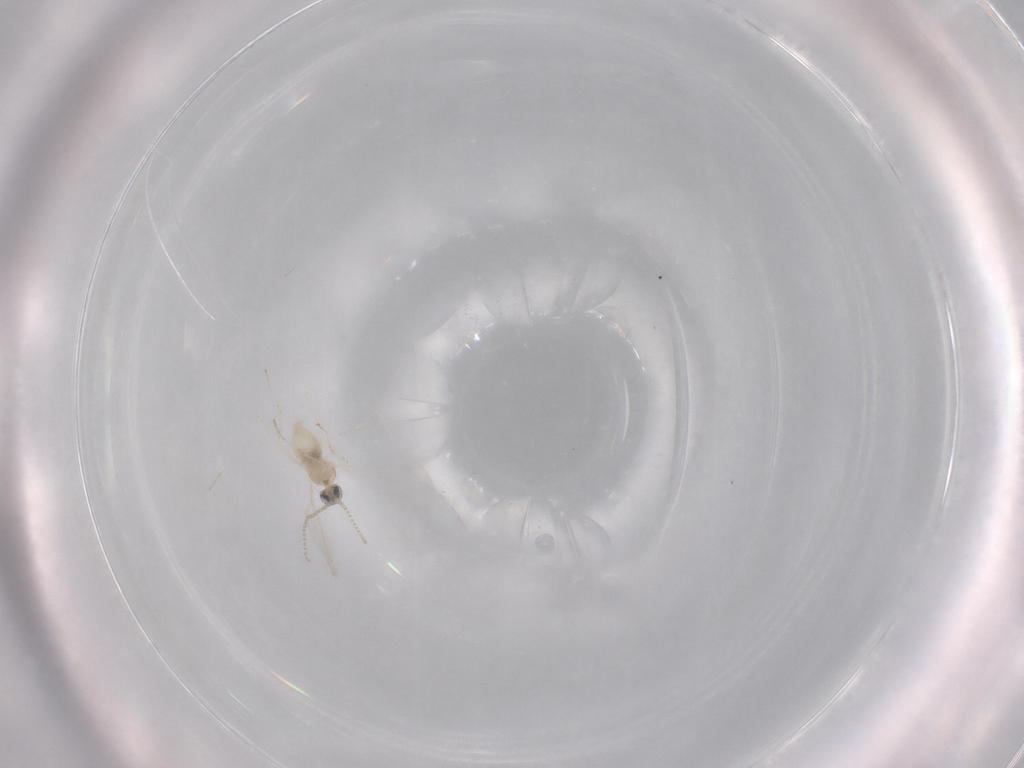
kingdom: Animalia
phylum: Arthropoda
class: Insecta
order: Diptera
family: Cecidomyiidae
